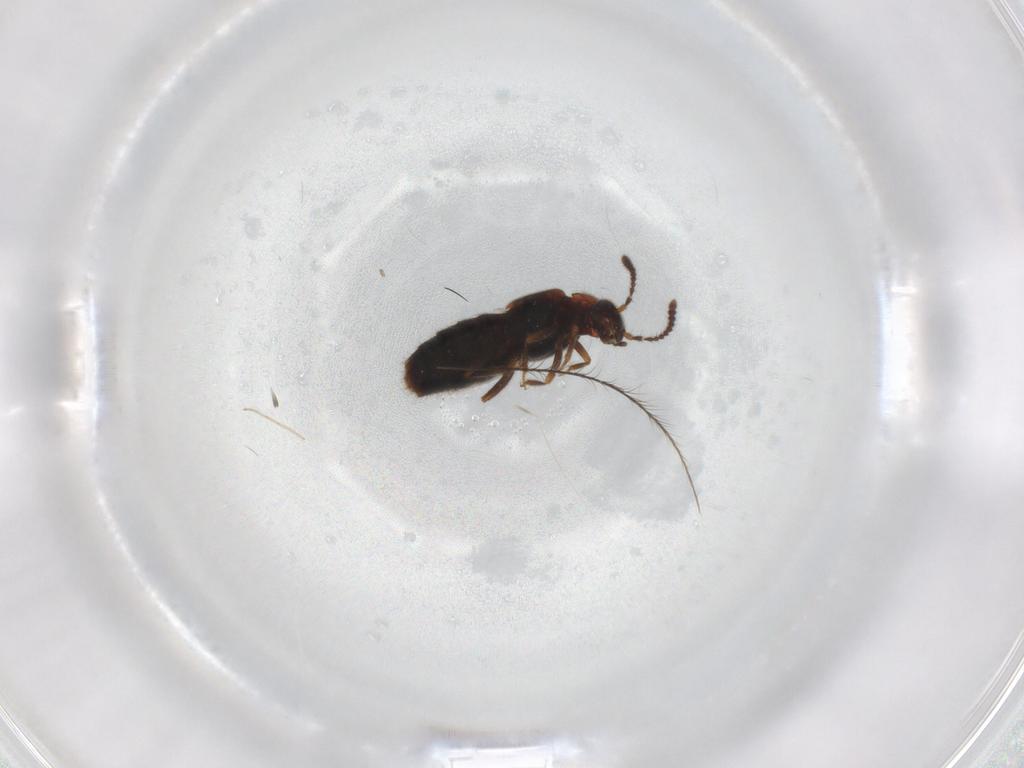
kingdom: Animalia
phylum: Arthropoda
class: Insecta
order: Coleoptera
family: Staphylinidae
